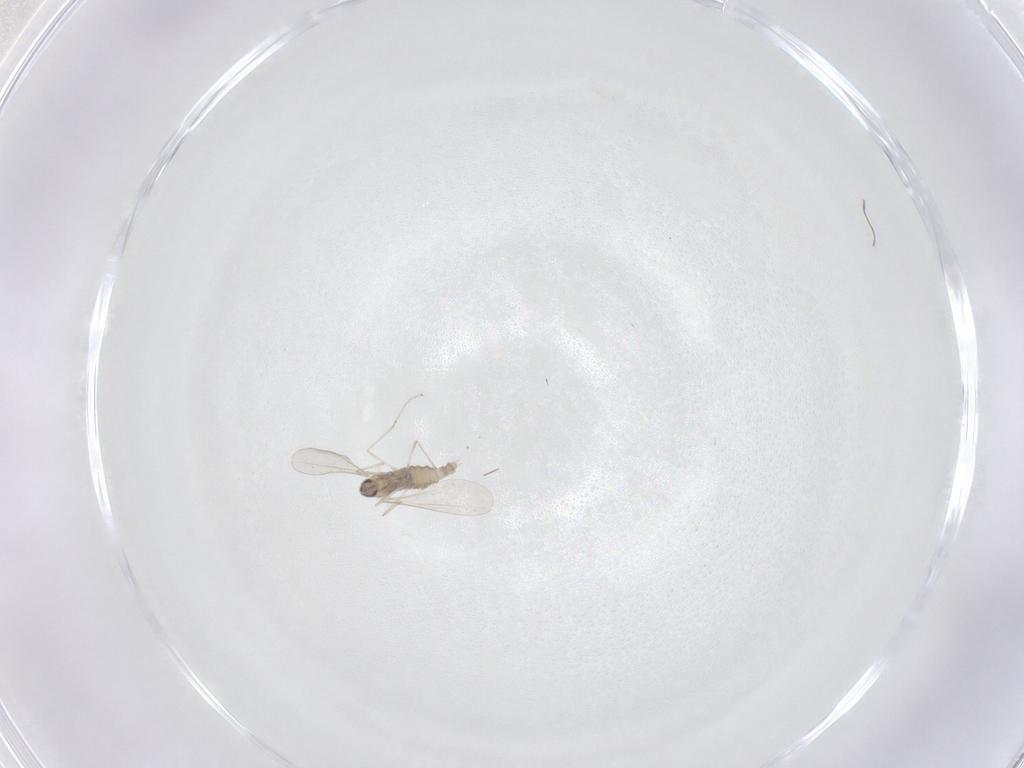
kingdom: Animalia
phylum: Arthropoda
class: Insecta
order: Diptera
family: Cecidomyiidae
